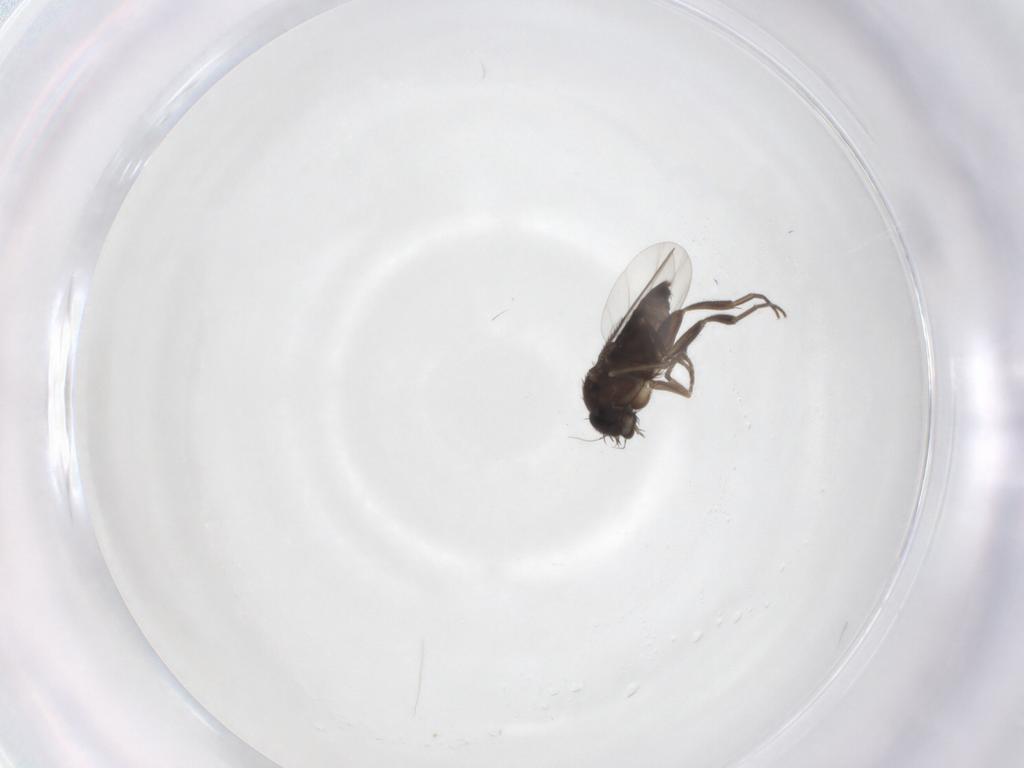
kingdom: Animalia
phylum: Arthropoda
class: Insecta
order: Diptera
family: Phoridae
